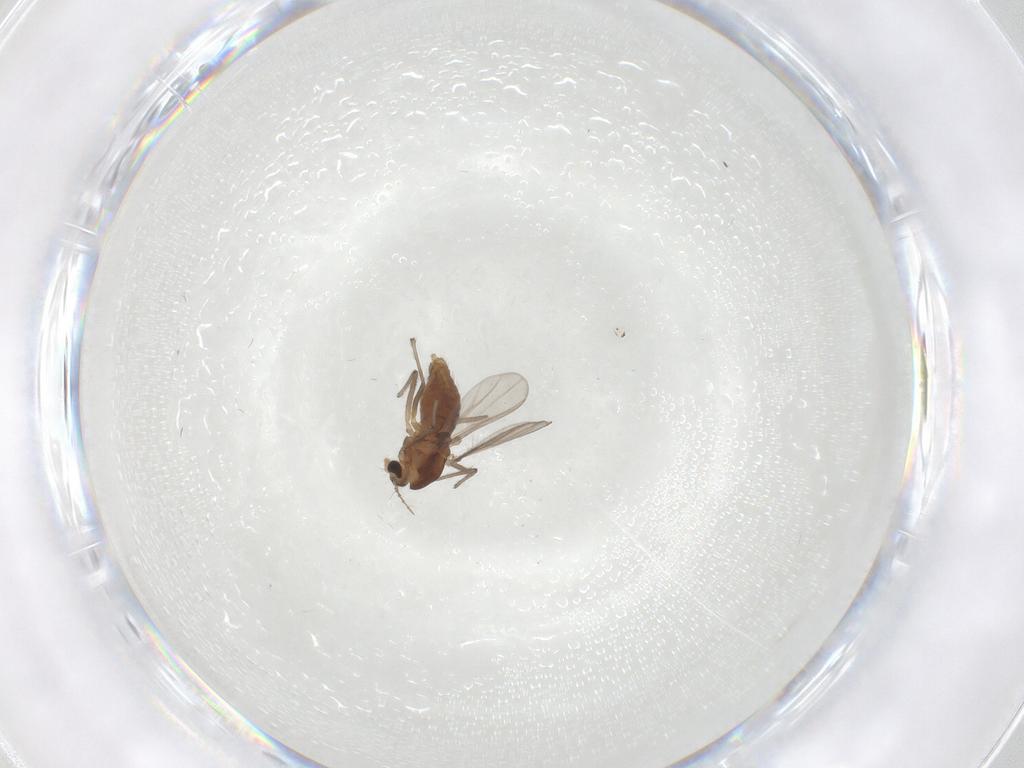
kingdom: Animalia
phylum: Arthropoda
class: Insecta
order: Diptera
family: Chironomidae
